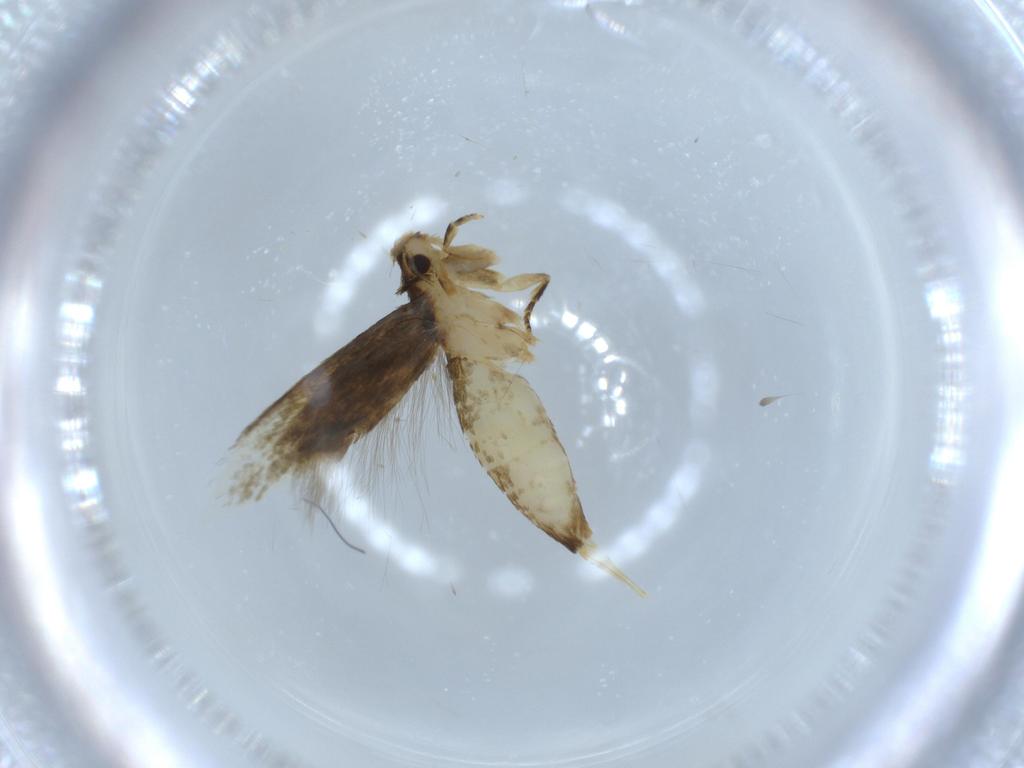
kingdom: Animalia
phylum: Arthropoda
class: Insecta
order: Lepidoptera
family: Tineidae
